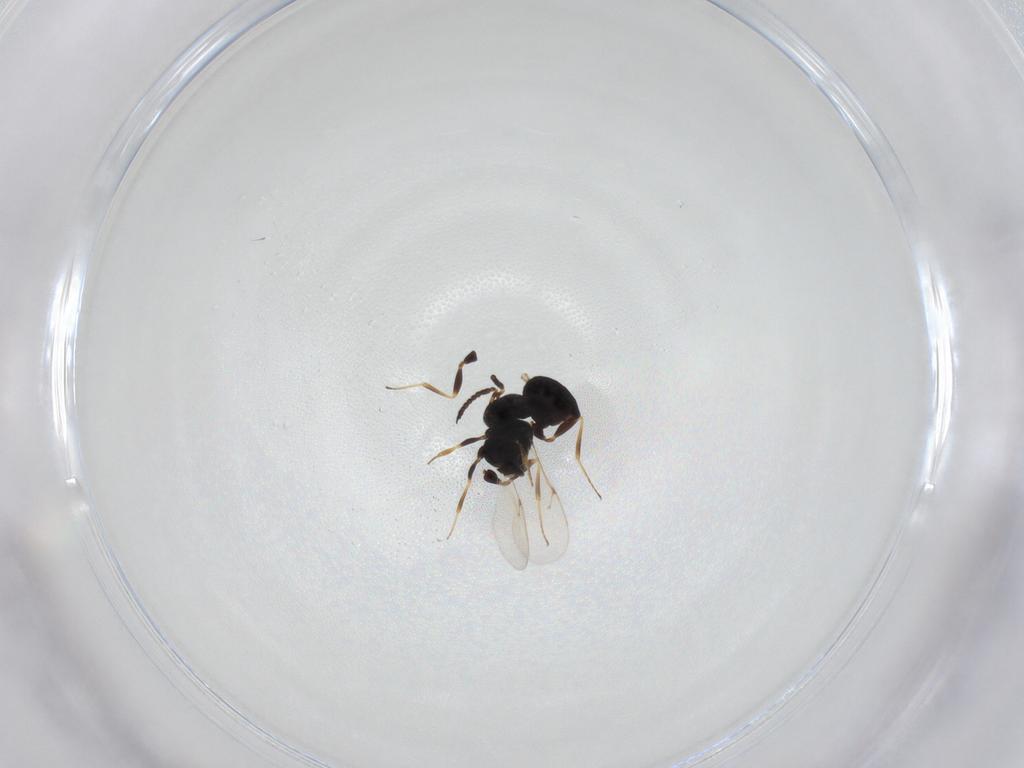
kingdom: Animalia
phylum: Arthropoda
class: Insecta
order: Hymenoptera
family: Scelionidae
